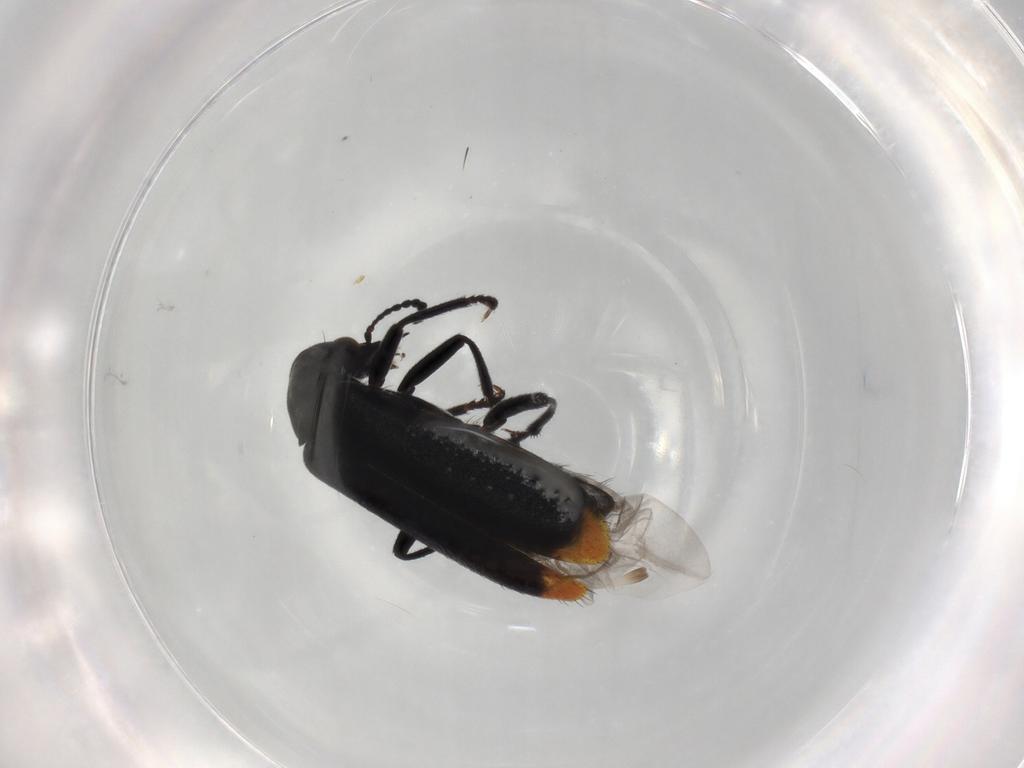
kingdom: Animalia
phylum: Arthropoda
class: Insecta
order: Coleoptera
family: Melyridae
